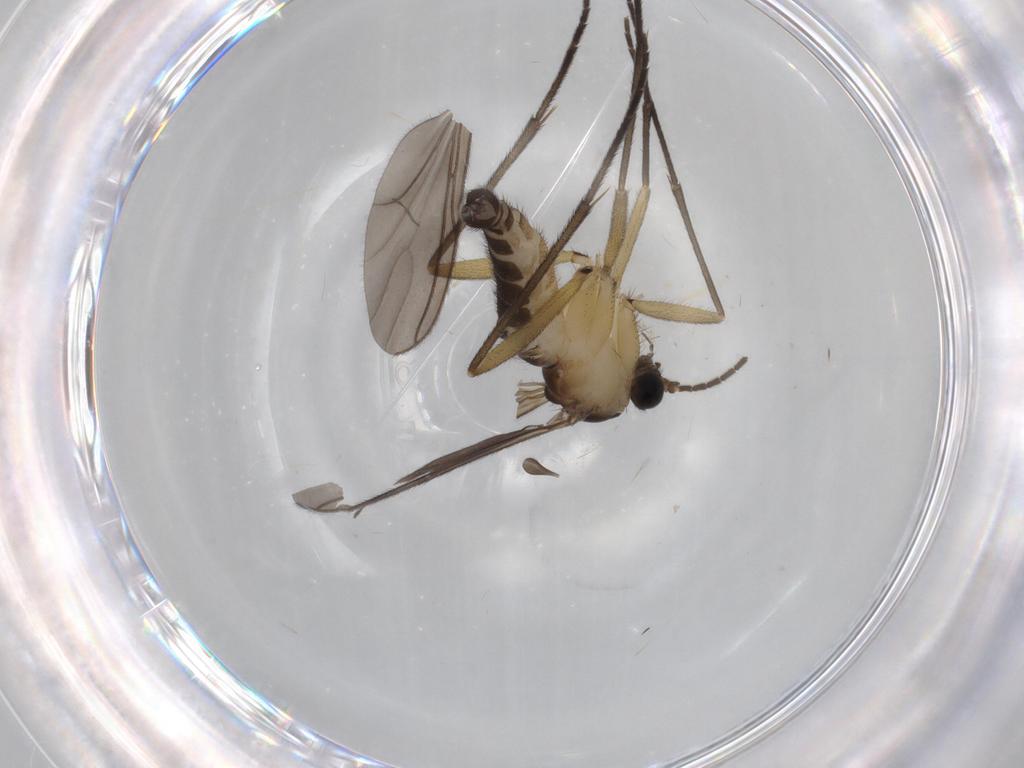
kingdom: Animalia
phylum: Arthropoda
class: Insecta
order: Diptera
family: Sciaridae
